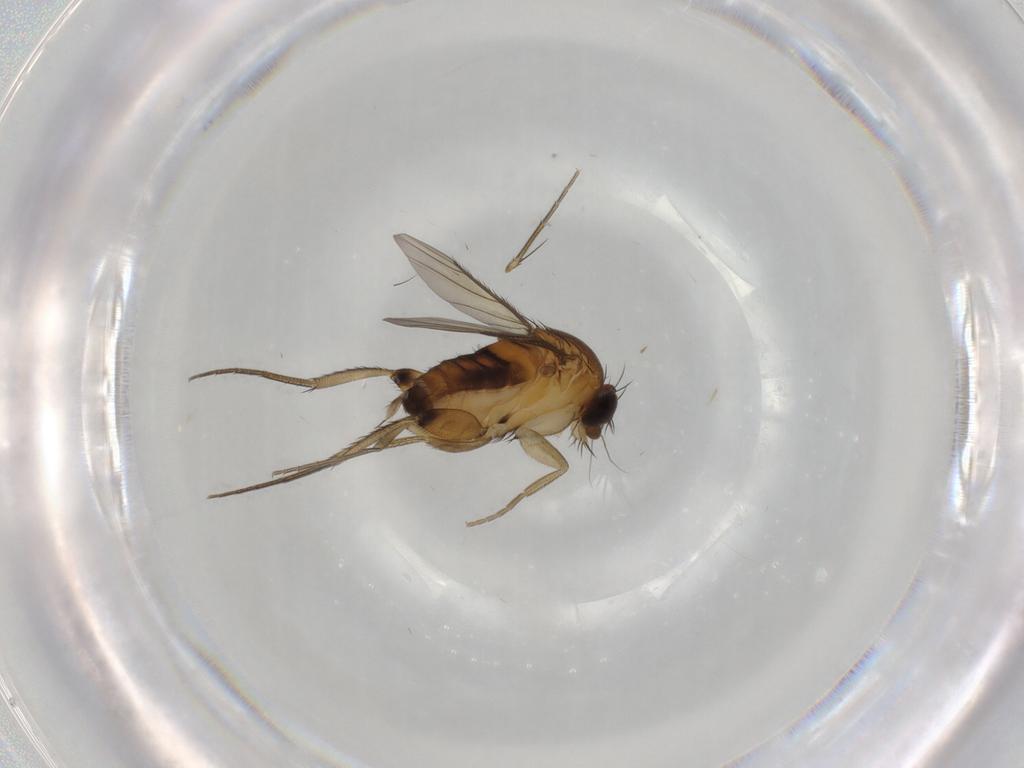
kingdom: Animalia
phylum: Arthropoda
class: Insecta
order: Diptera
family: Phoridae
